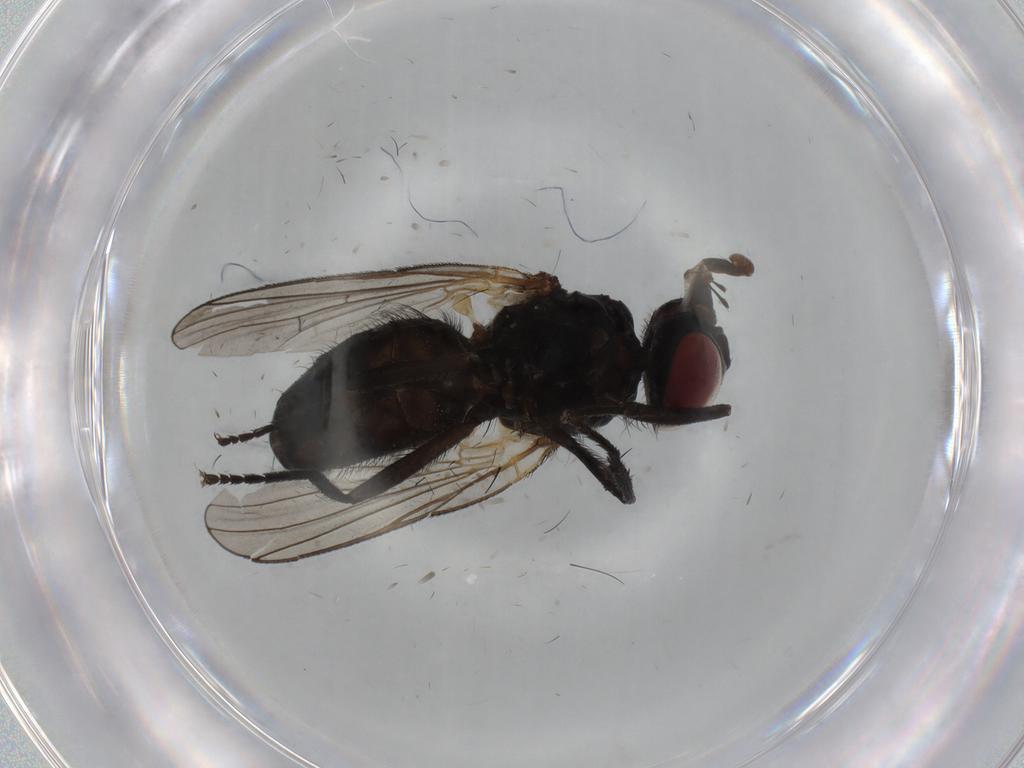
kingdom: Animalia
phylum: Arthropoda
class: Insecta
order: Diptera
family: Fannia
